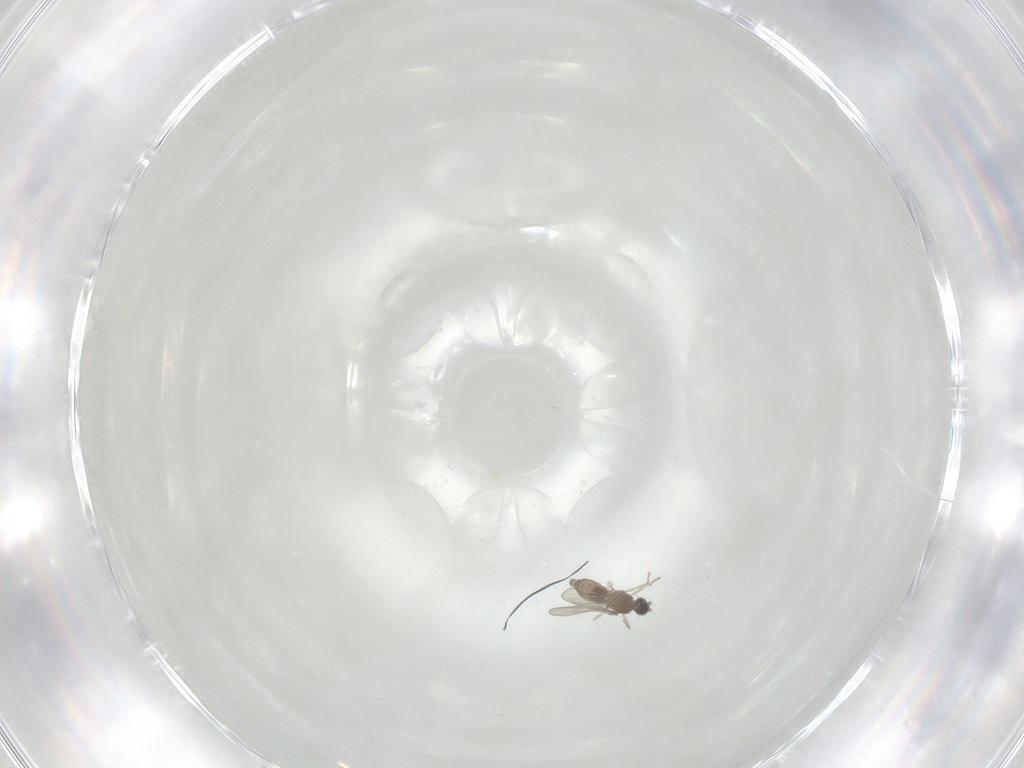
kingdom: Animalia
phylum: Arthropoda
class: Insecta
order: Diptera
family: Cecidomyiidae
